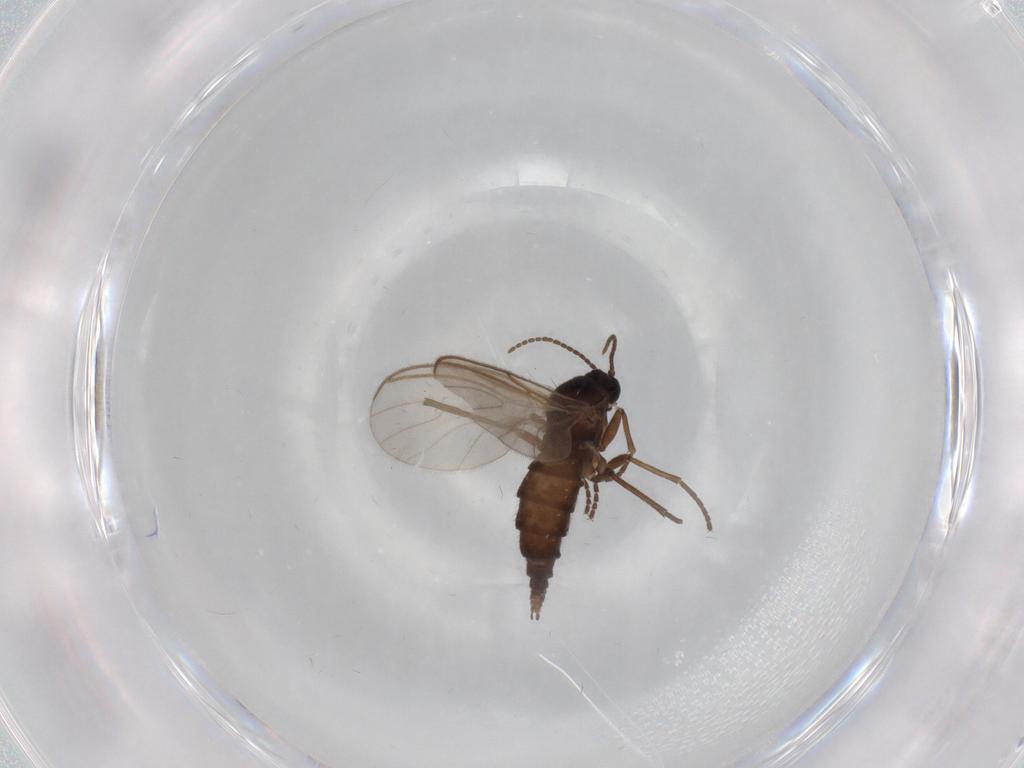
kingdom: Animalia
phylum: Arthropoda
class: Insecta
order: Diptera
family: Sciaridae
